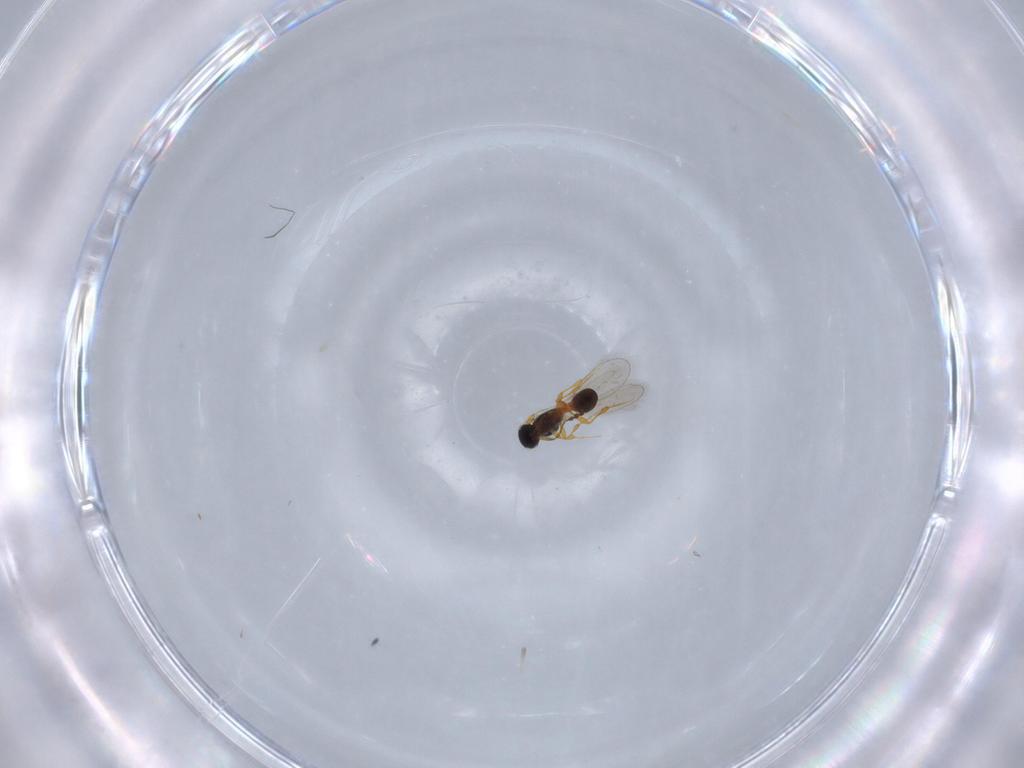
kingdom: Animalia
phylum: Arthropoda
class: Insecta
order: Hymenoptera
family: Platygastridae
